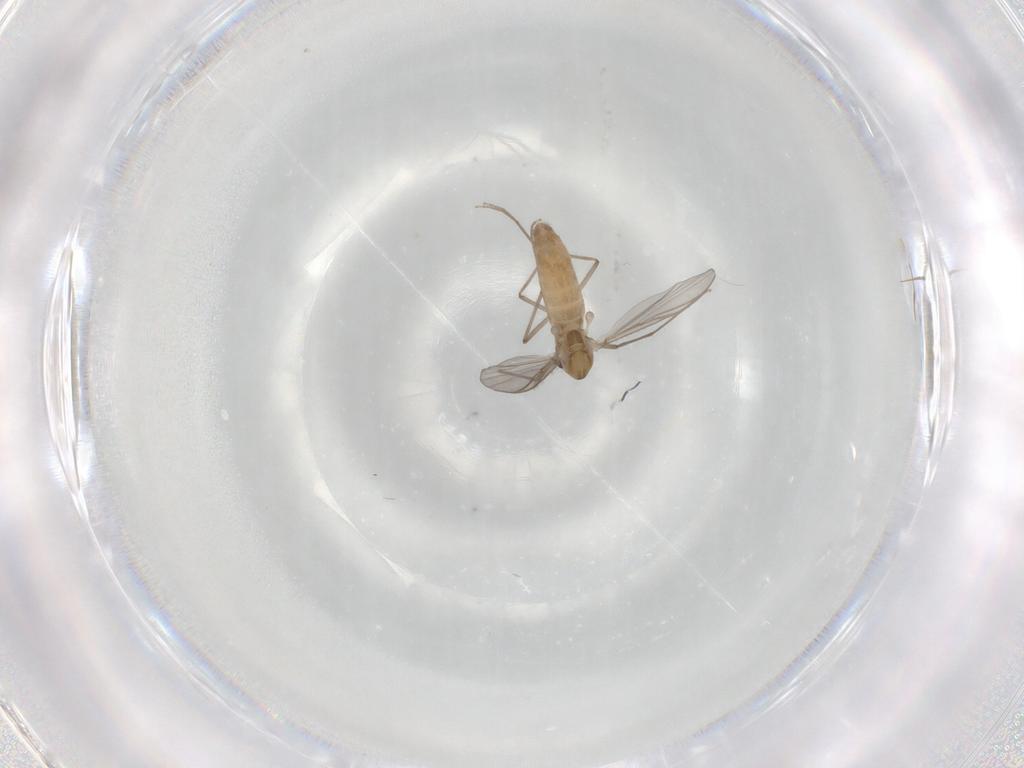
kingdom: Animalia
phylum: Arthropoda
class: Insecta
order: Diptera
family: Chironomidae
